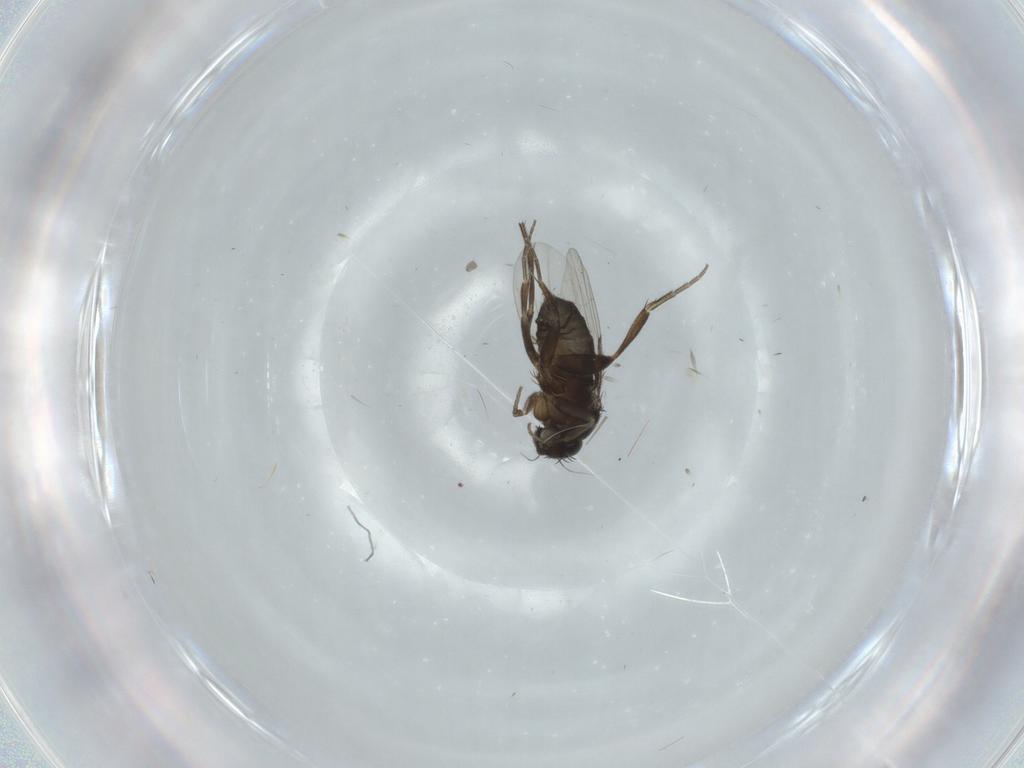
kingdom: Animalia
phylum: Arthropoda
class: Insecta
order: Diptera
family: Phoridae
